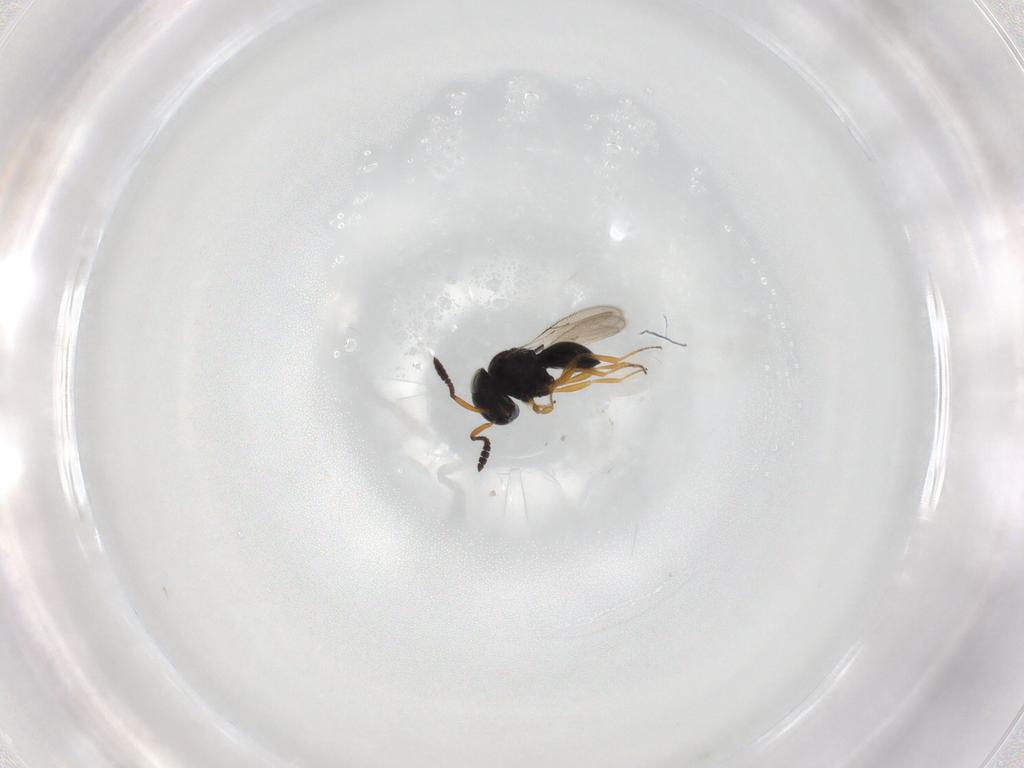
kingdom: Animalia
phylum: Arthropoda
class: Insecta
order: Hymenoptera
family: Scelionidae
